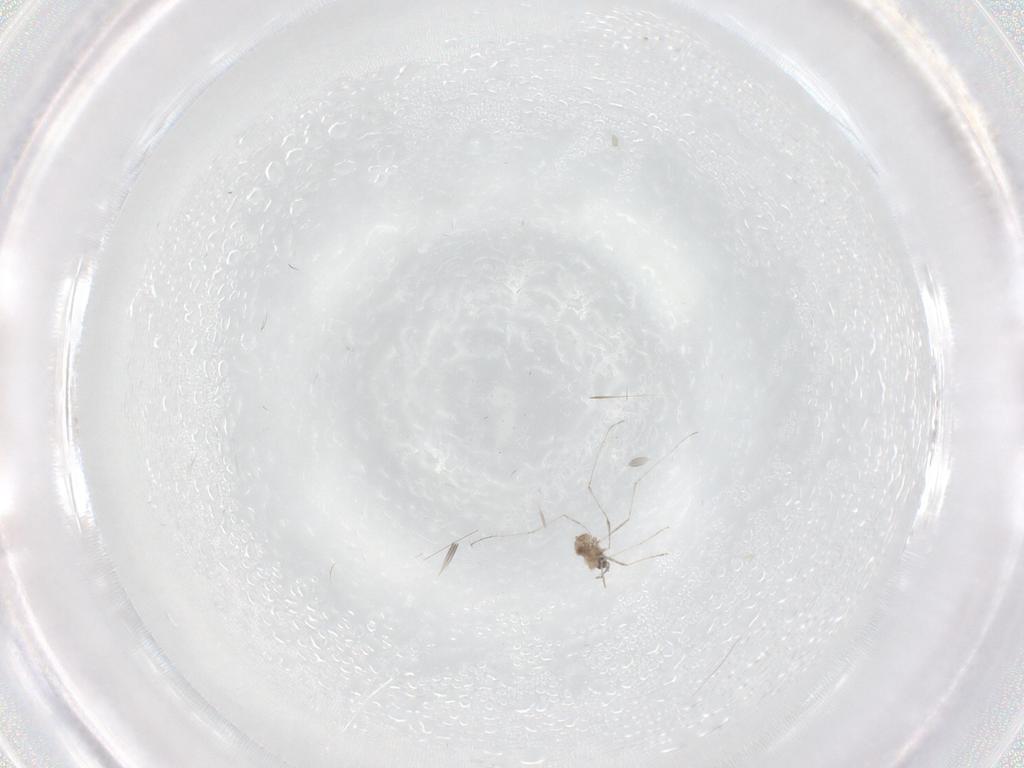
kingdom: Animalia
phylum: Arthropoda
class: Insecta
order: Diptera
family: Cecidomyiidae
